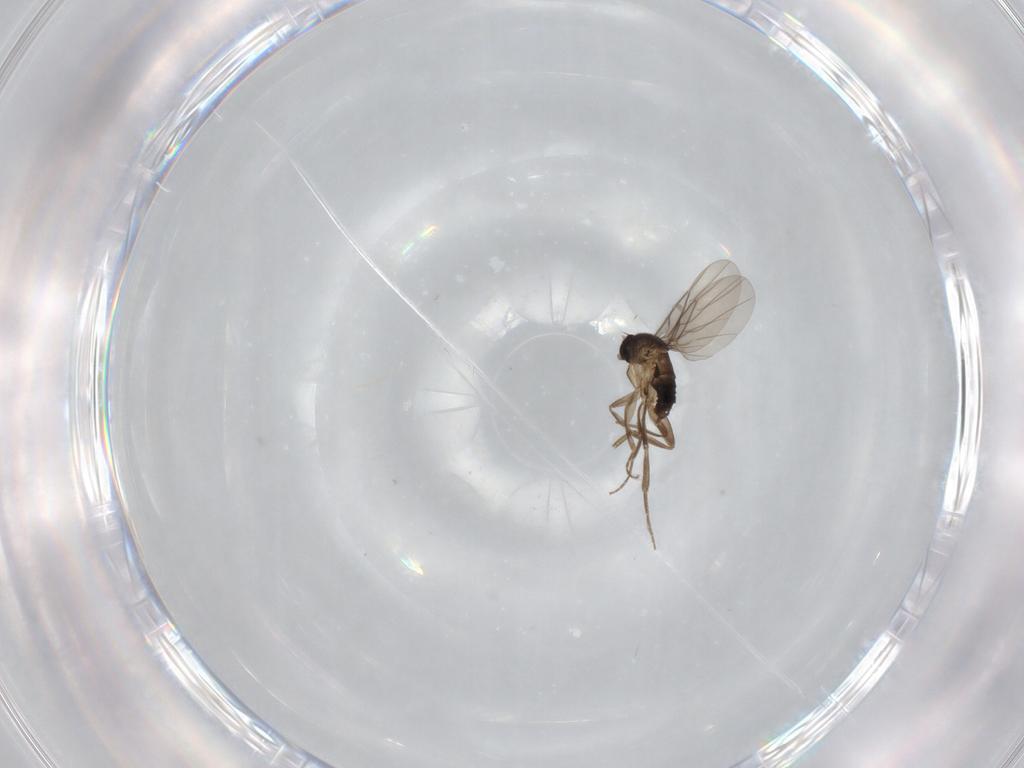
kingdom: Animalia
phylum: Arthropoda
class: Insecta
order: Diptera
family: Phoridae
